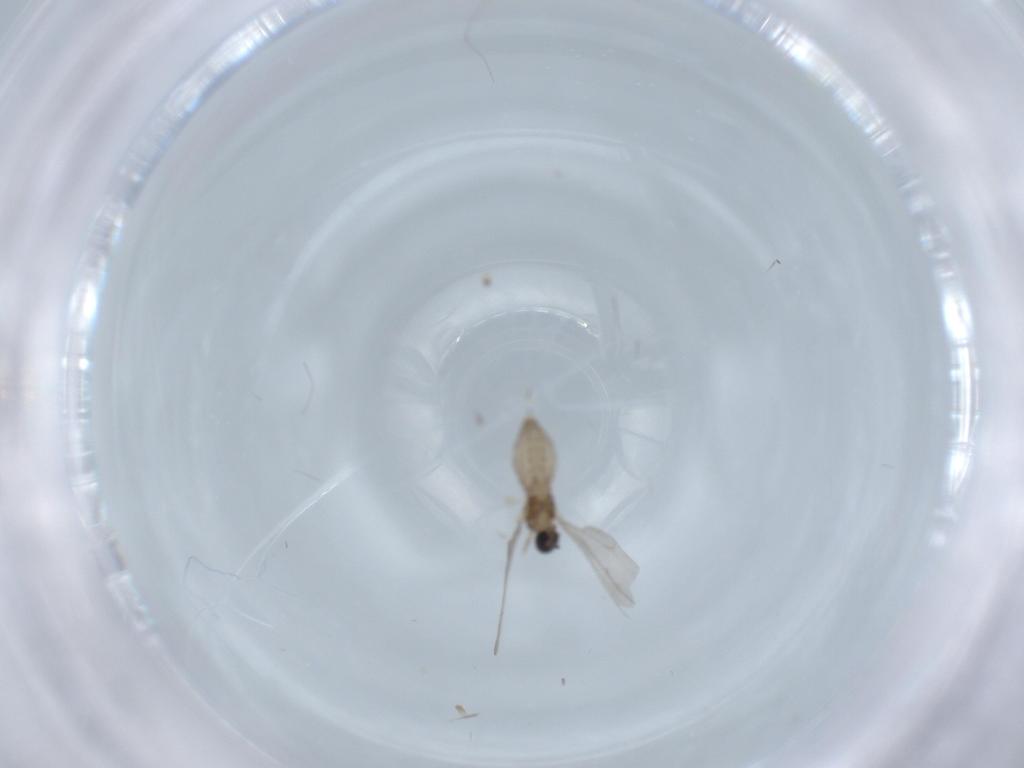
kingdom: Animalia
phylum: Arthropoda
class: Insecta
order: Diptera
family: Cecidomyiidae
